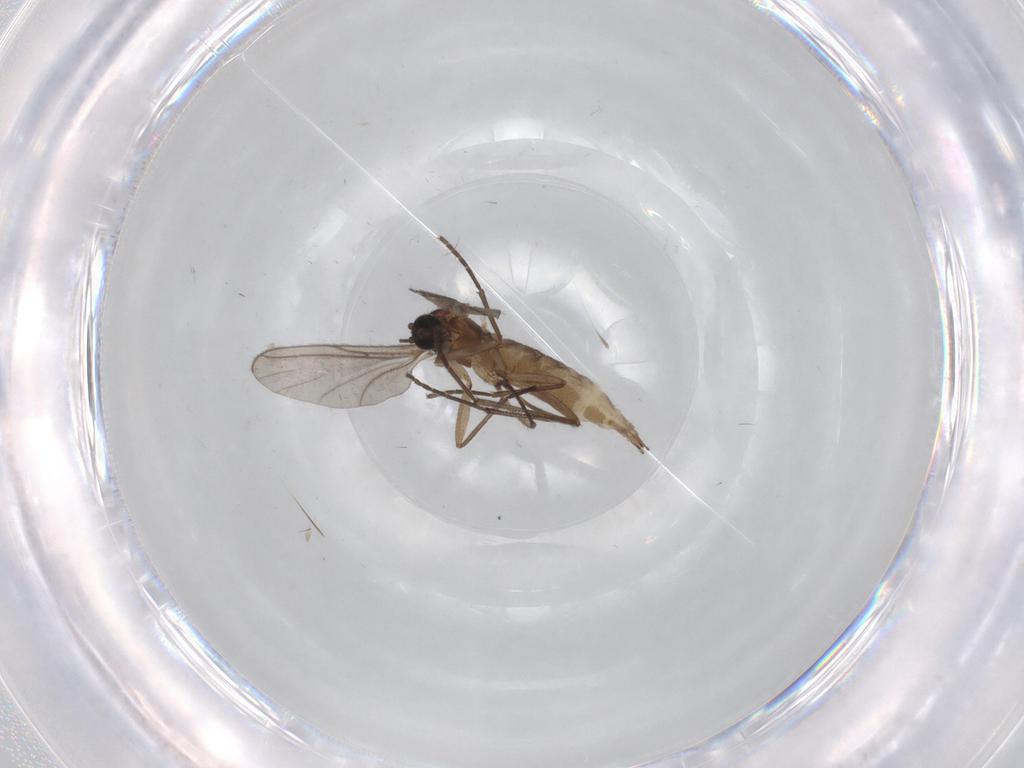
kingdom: Animalia
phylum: Arthropoda
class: Insecta
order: Diptera
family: Sciaridae
